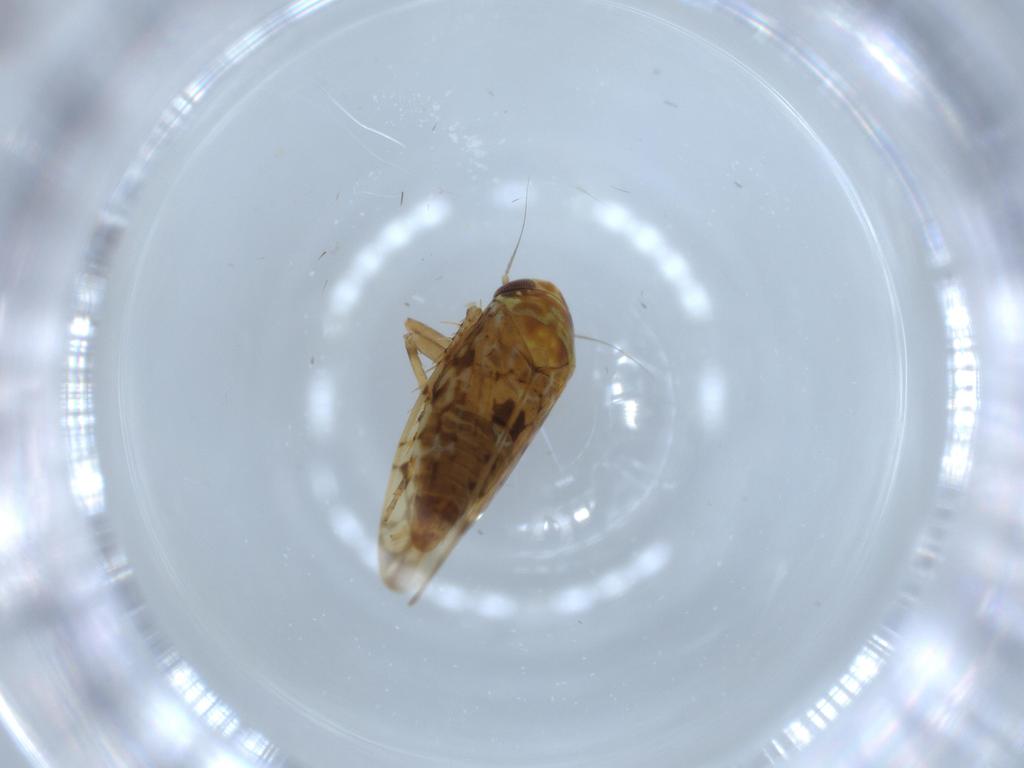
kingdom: Animalia
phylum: Arthropoda
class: Insecta
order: Hemiptera
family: Cicadellidae
